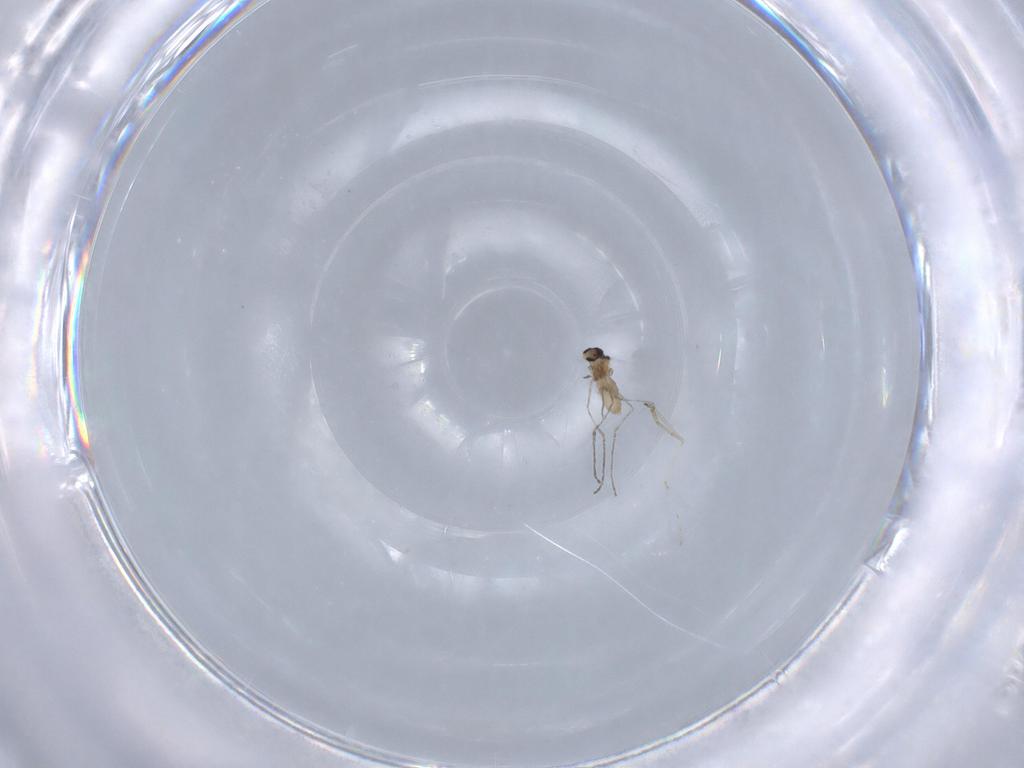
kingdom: Animalia
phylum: Arthropoda
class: Insecta
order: Diptera
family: Cecidomyiidae
